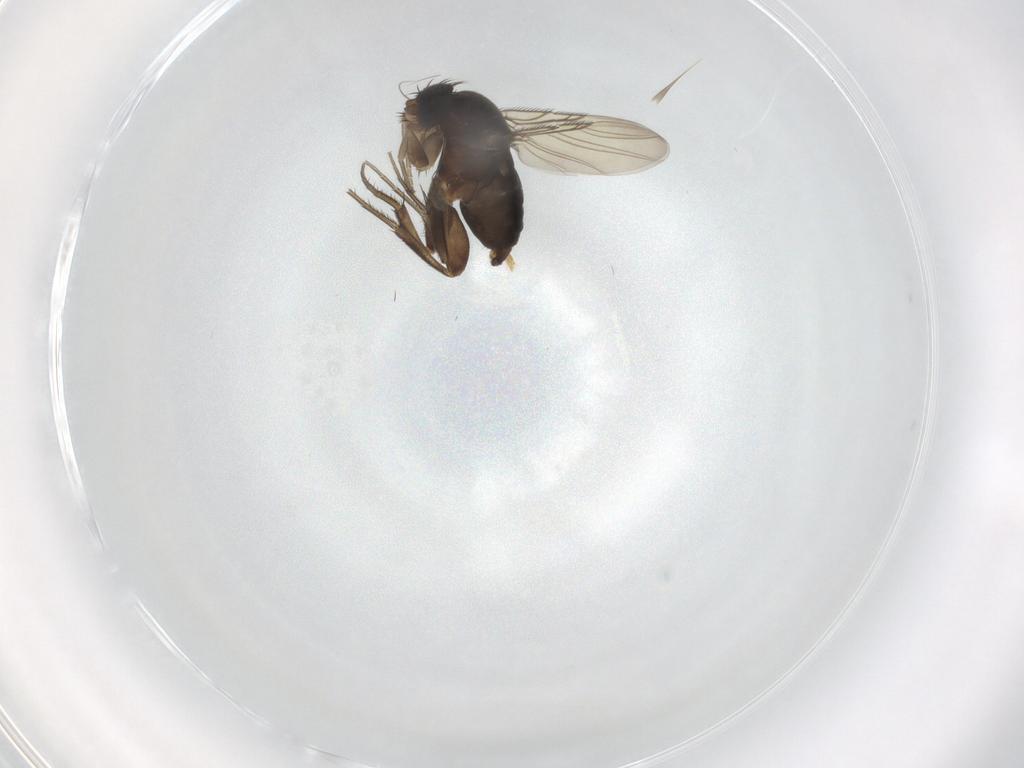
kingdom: Animalia
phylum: Arthropoda
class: Insecta
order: Diptera
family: Phoridae
